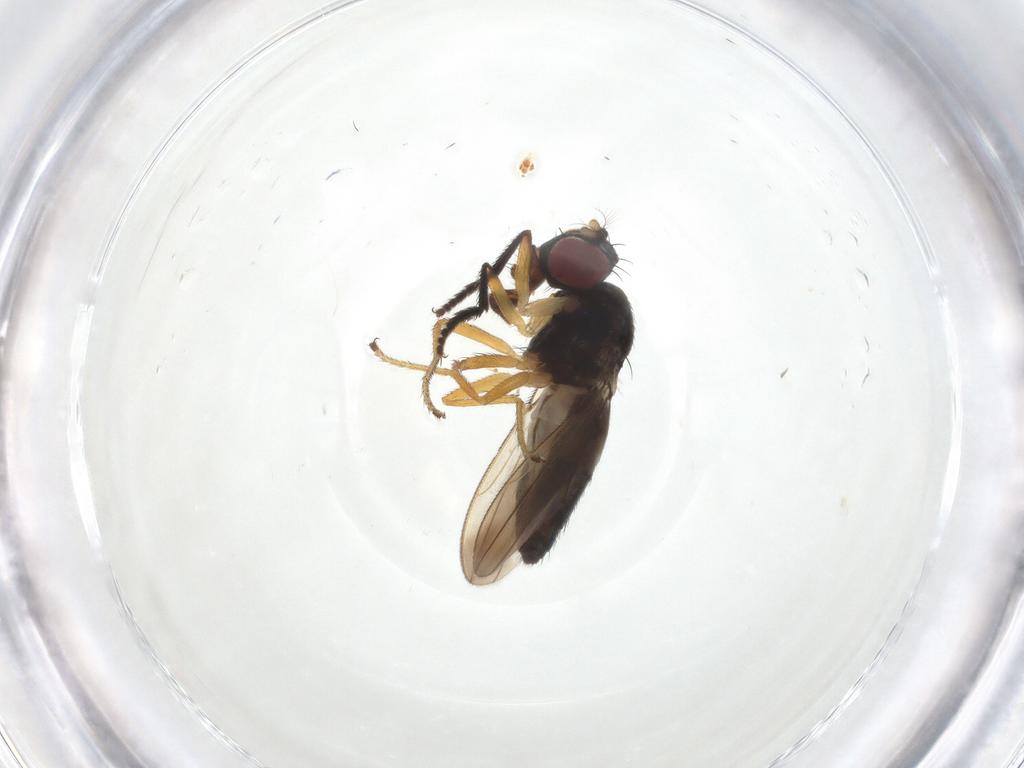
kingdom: Animalia
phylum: Arthropoda
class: Insecta
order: Diptera
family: Ephydridae
